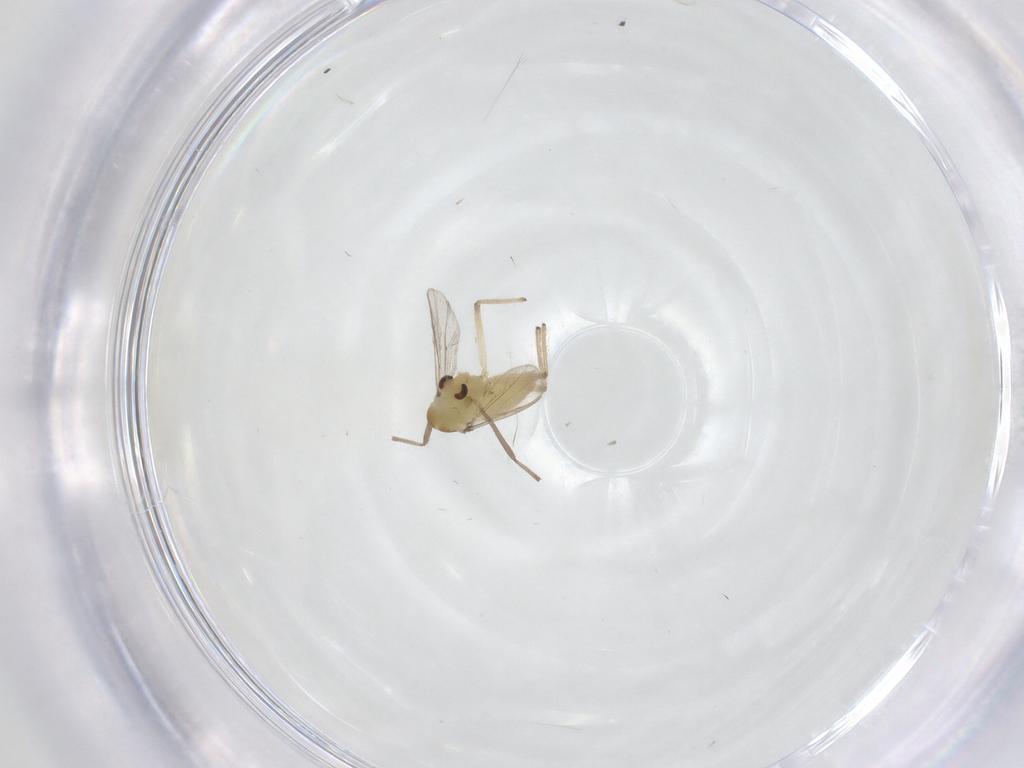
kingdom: Animalia
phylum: Arthropoda
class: Insecta
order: Diptera
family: Chironomidae
